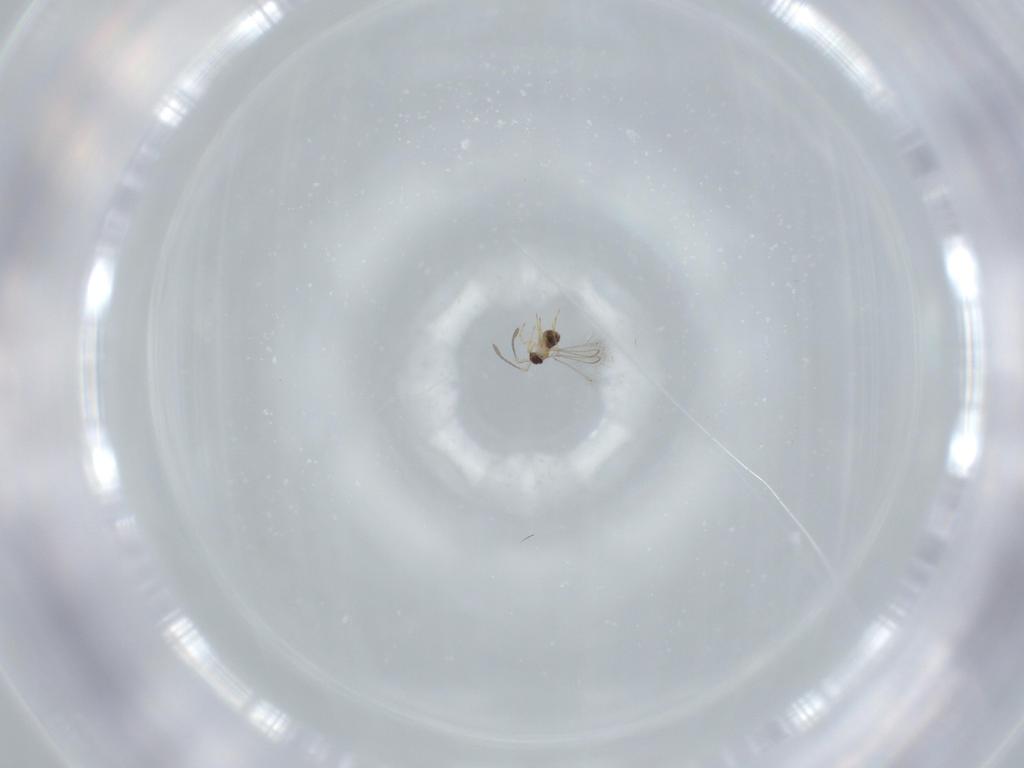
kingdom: Animalia
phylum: Arthropoda
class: Insecta
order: Hymenoptera
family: Mymaridae
